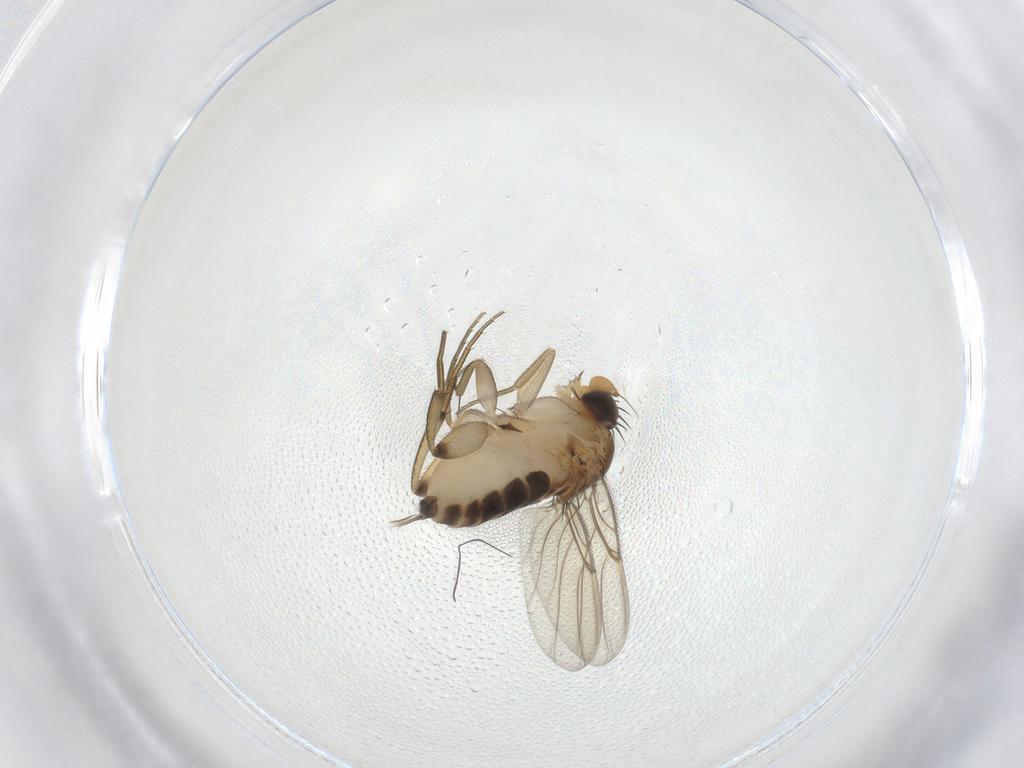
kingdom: Animalia
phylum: Arthropoda
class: Insecta
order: Diptera
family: Phoridae
